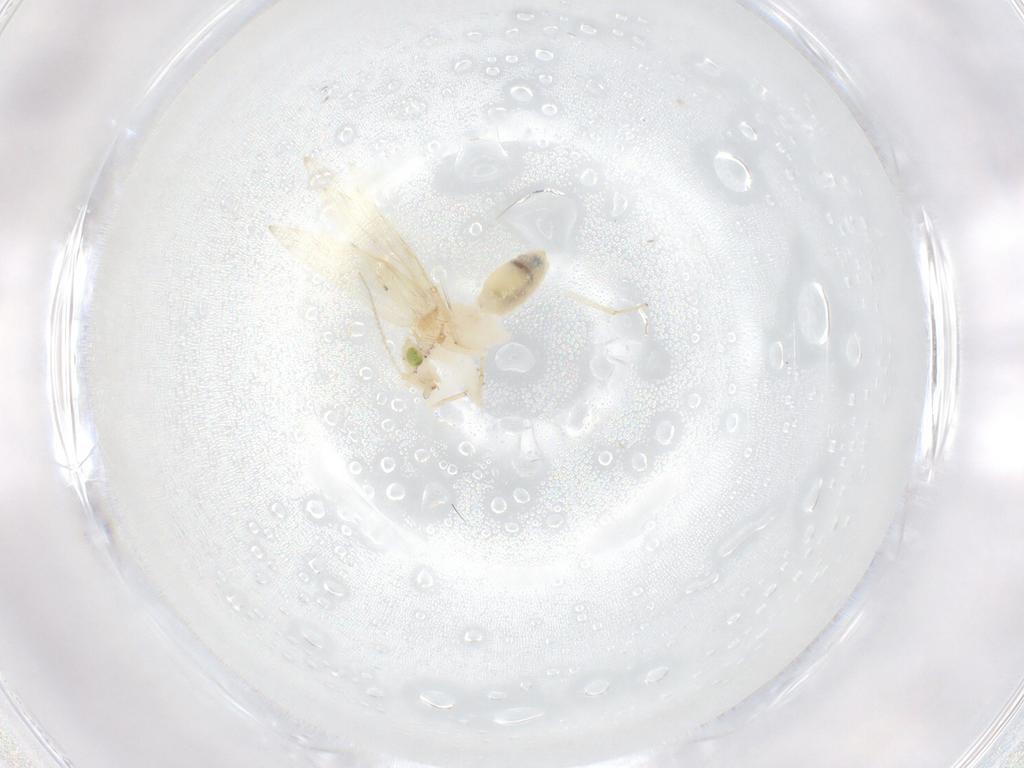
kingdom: Animalia
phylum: Arthropoda
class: Insecta
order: Psocodea
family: Lepidopsocidae
